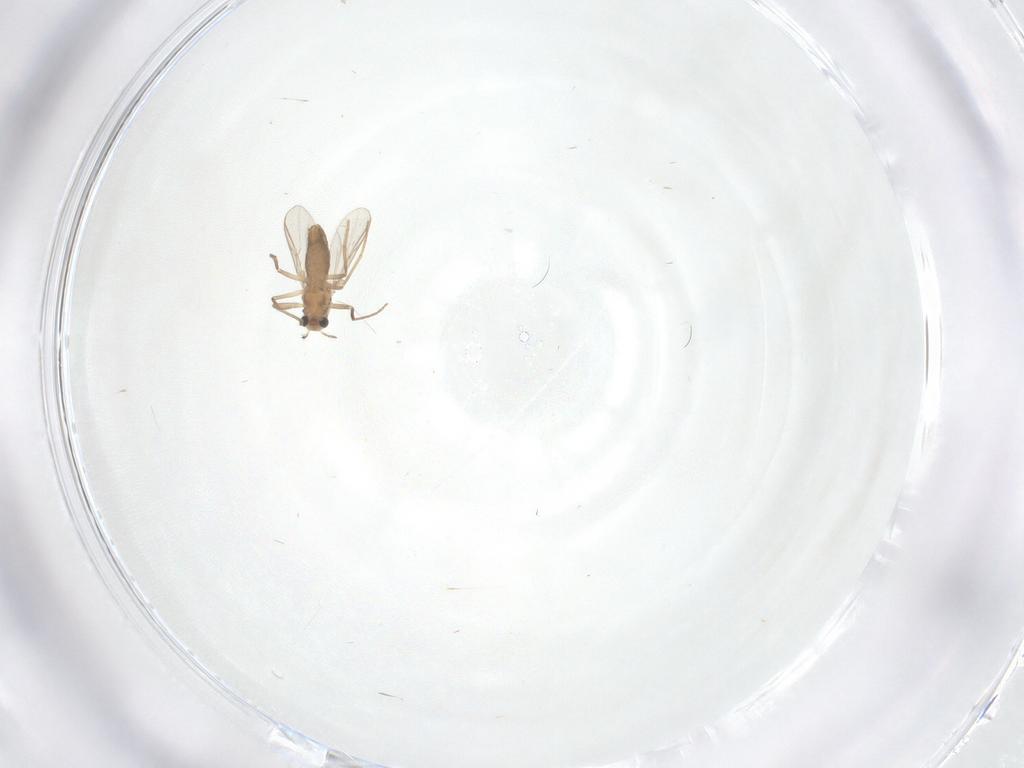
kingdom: Animalia
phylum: Arthropoda
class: Insecta
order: Diptera
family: Chironomidae
